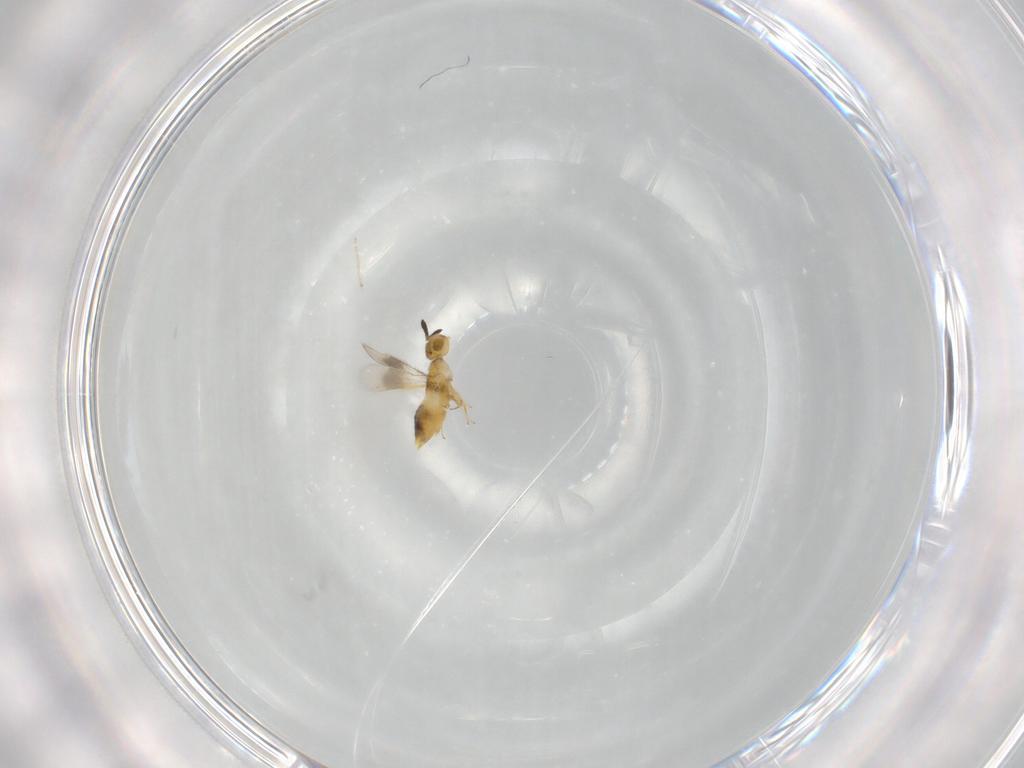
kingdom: Animalia
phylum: Arthropoda
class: Insecta
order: Hymenoptera
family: Encyrtidae
